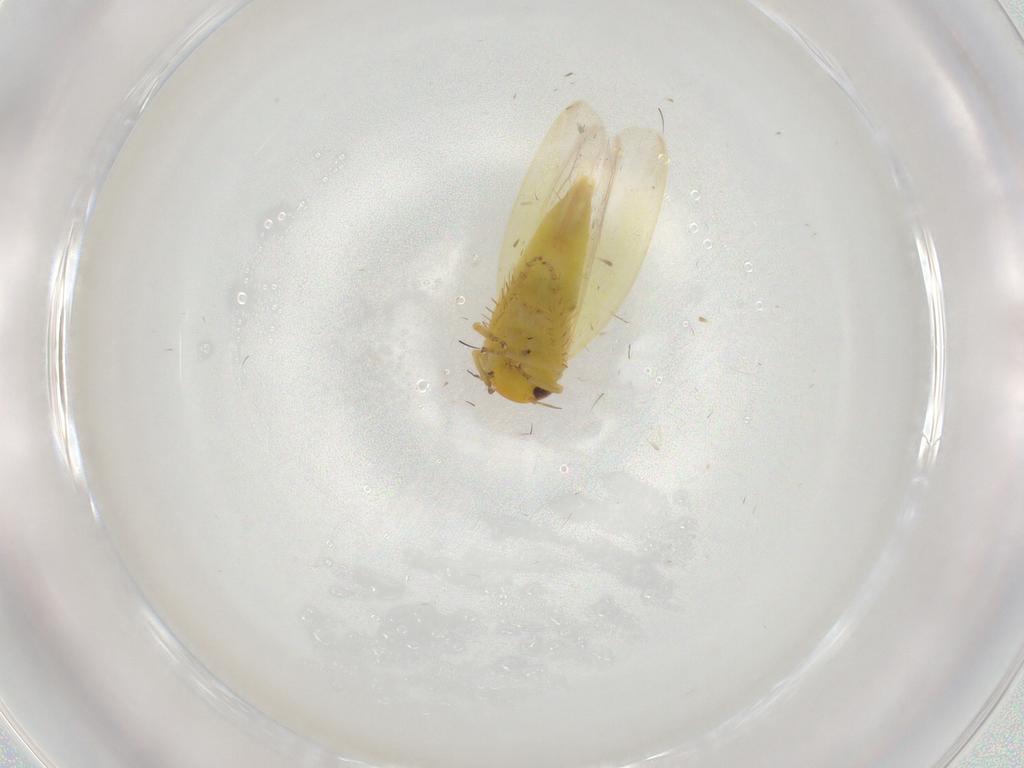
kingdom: Animalia
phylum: Arthropoda
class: Insecta
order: Hemiptera
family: Cicadellidae
